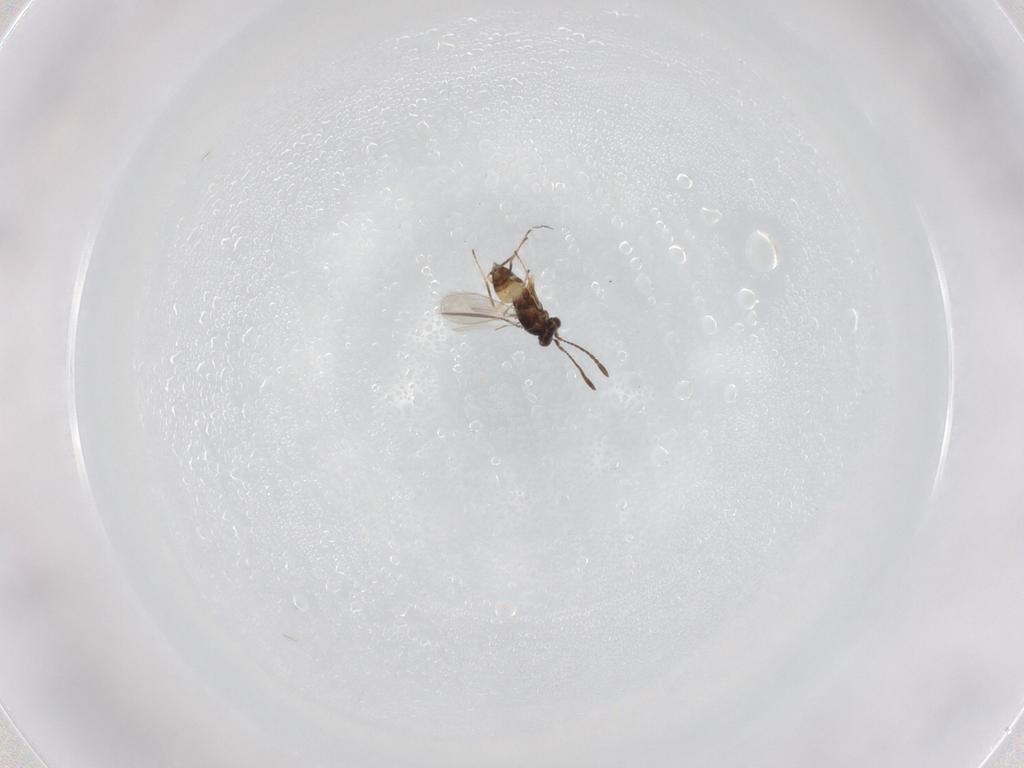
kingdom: Animalia
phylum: Arthropoda
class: Insecta
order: Hymenoptera
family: Mymaridae
